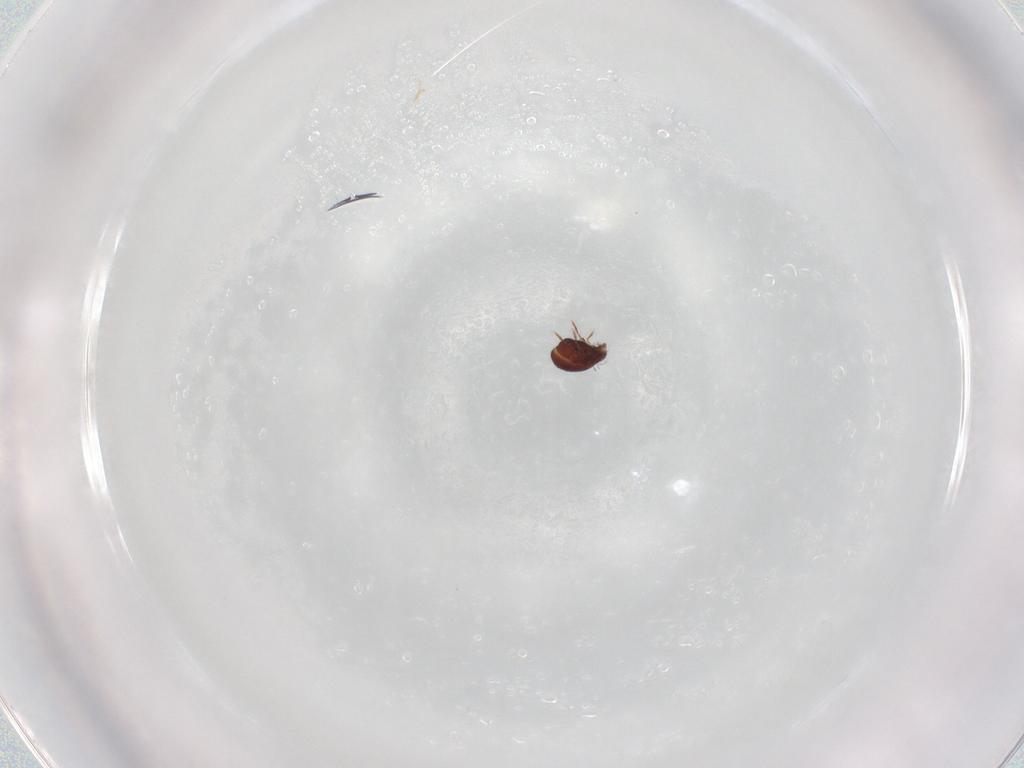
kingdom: Animalia
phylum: Arthropoda
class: Arachnida
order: Sarcoptiformes
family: Phenopelopidae
